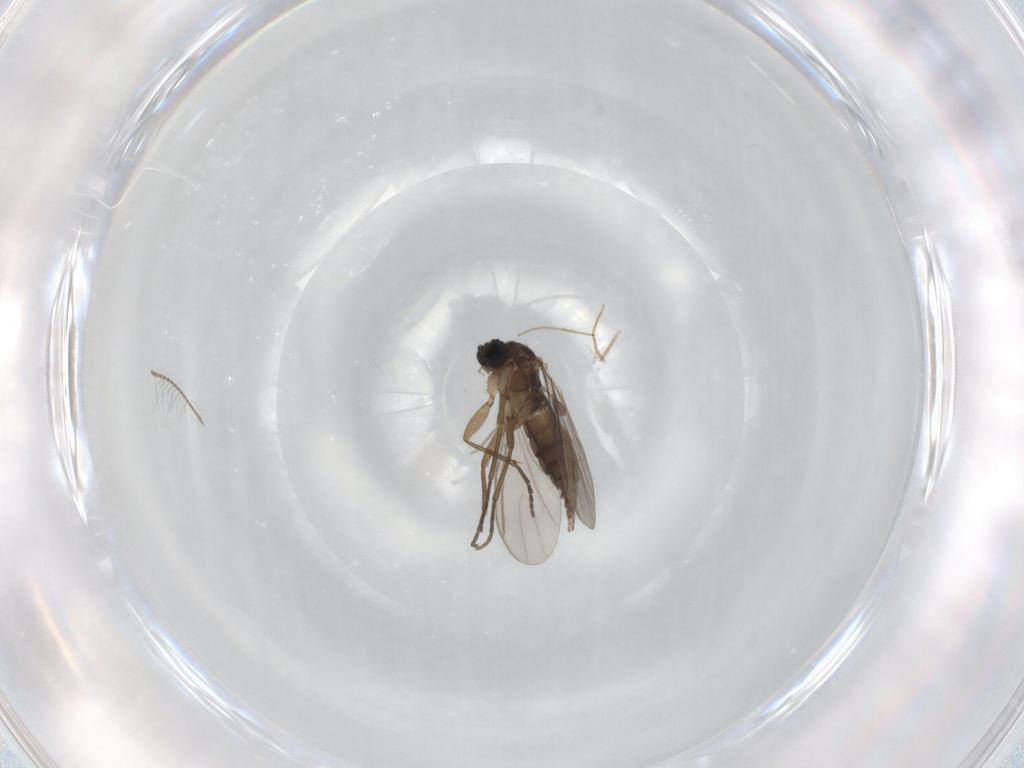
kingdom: Animalia
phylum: Arthropoda
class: Insecta
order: Diptera
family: Chironomidae
